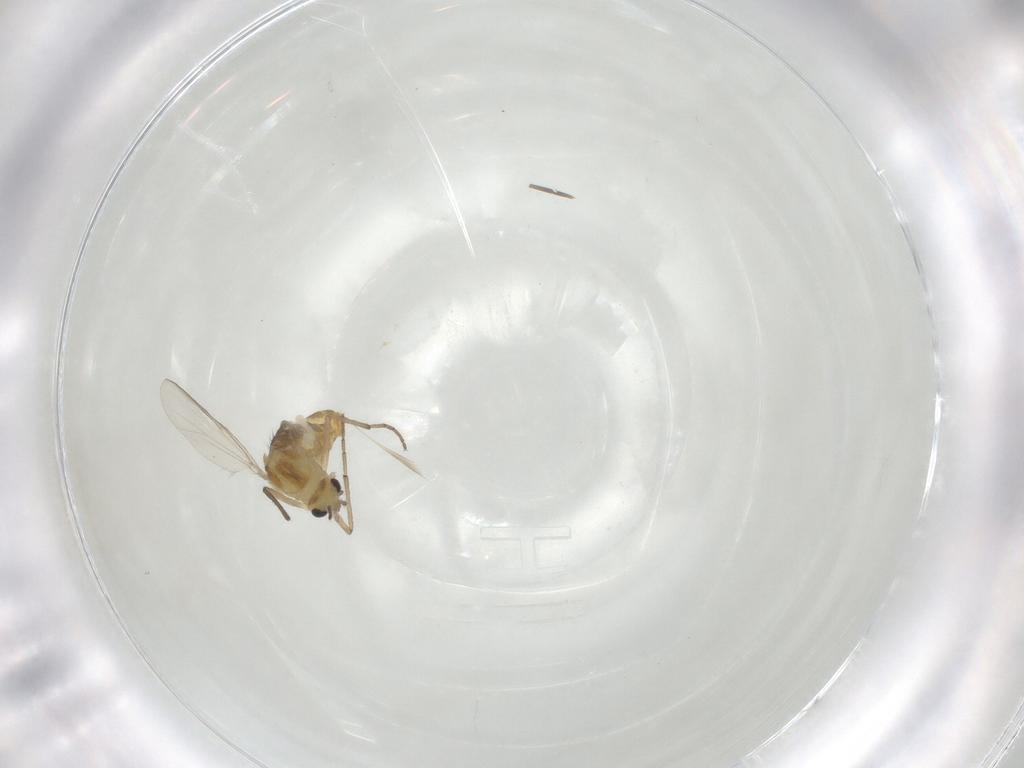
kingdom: Animalia
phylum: Arthropoda
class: Insecta
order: Diptera
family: Chironomidae
